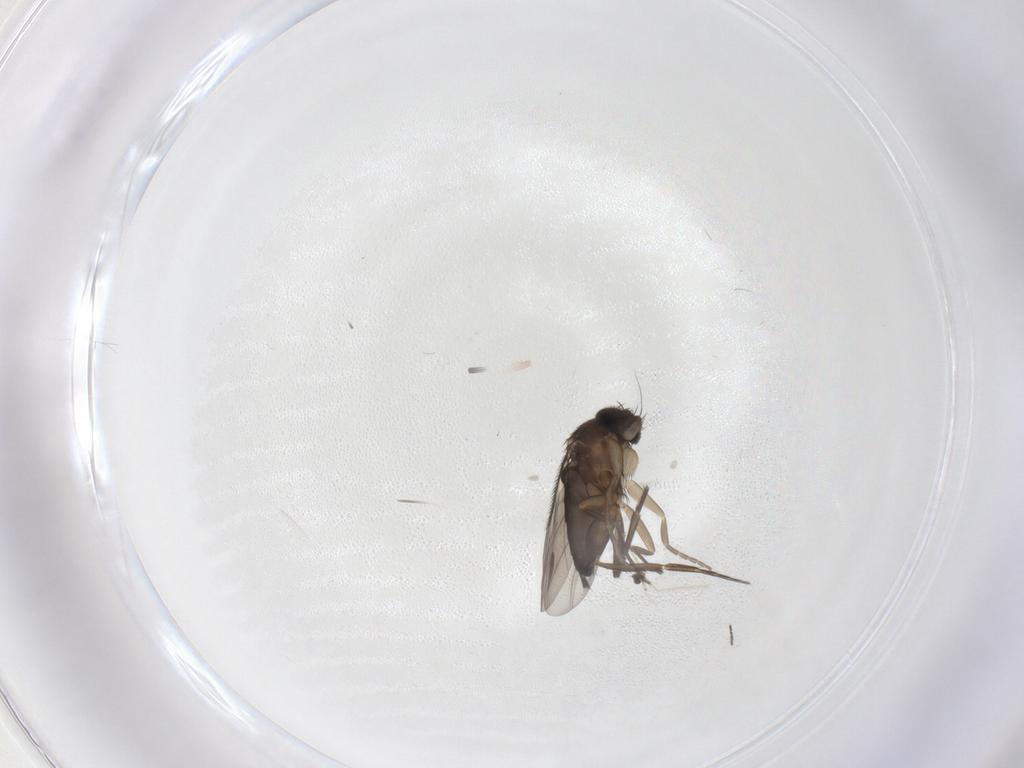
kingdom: Animalia
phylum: Arthropoda
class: Insecta
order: Diptera
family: Phoridae
